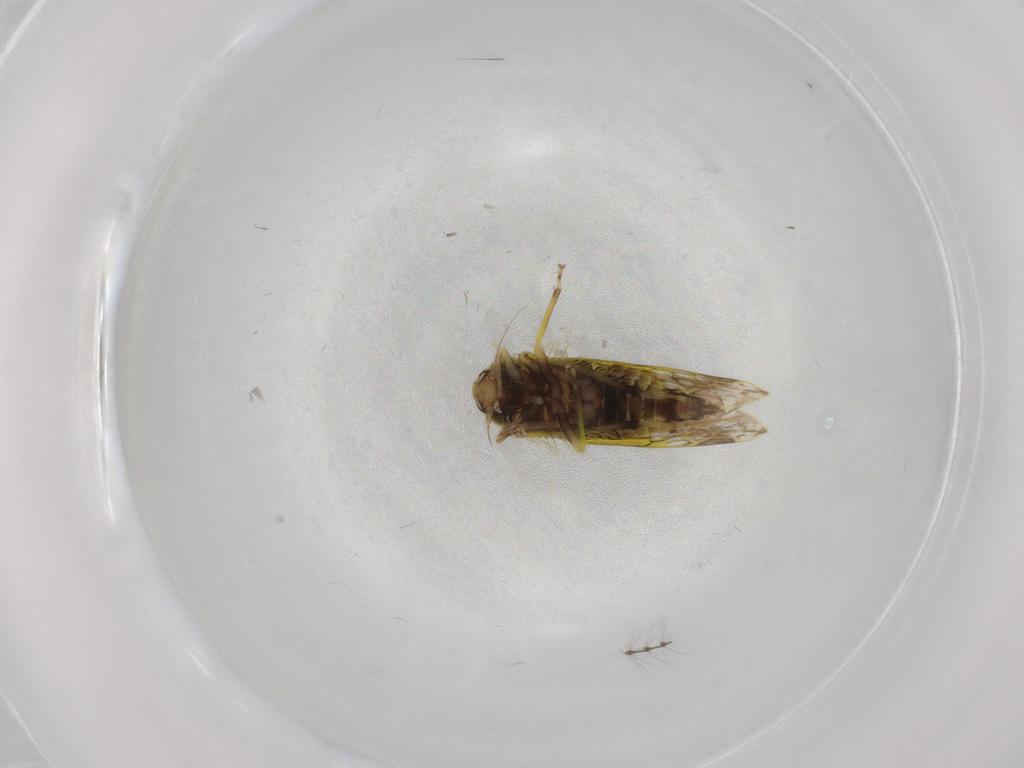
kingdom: Animalia
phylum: Arthropoda
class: Insecta
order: Hemiptera
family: Cicadellidae
